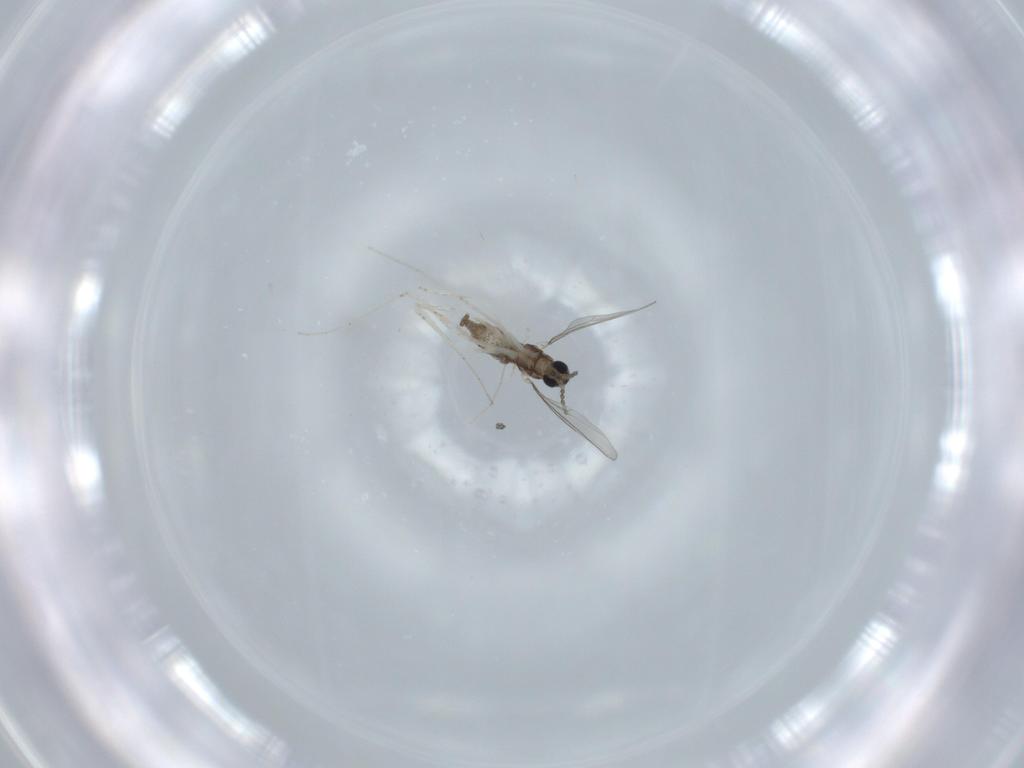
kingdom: Animalia
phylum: Arthropoda
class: Insecta
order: Diptera
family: Cecidomyiidae
